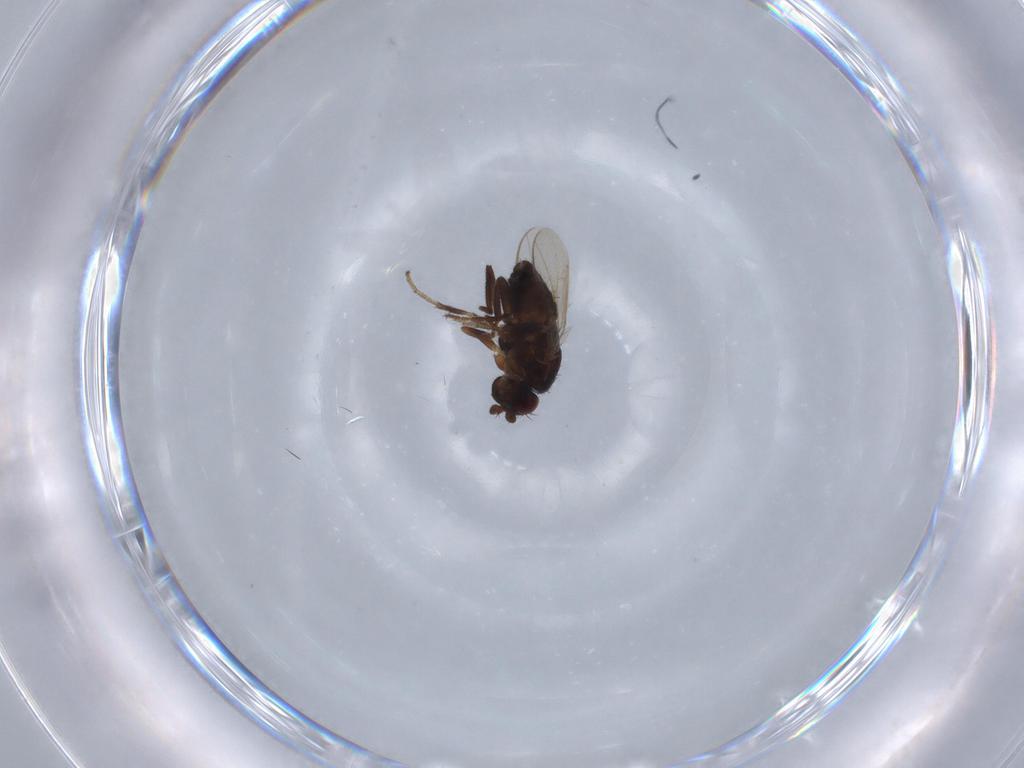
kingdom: Animalia
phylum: Arthropoda
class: Insecta
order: Diptera
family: Sphaeroceridae
